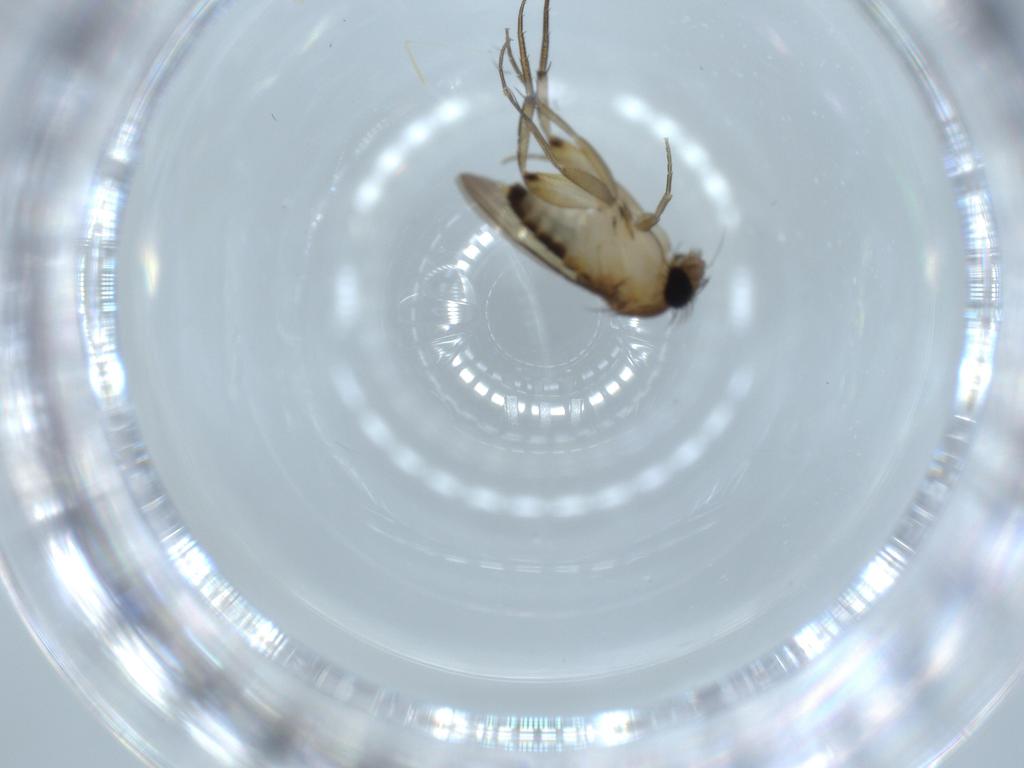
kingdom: Animalia
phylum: Arthropoda
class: Insecta
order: Diptera
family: Phoridae
